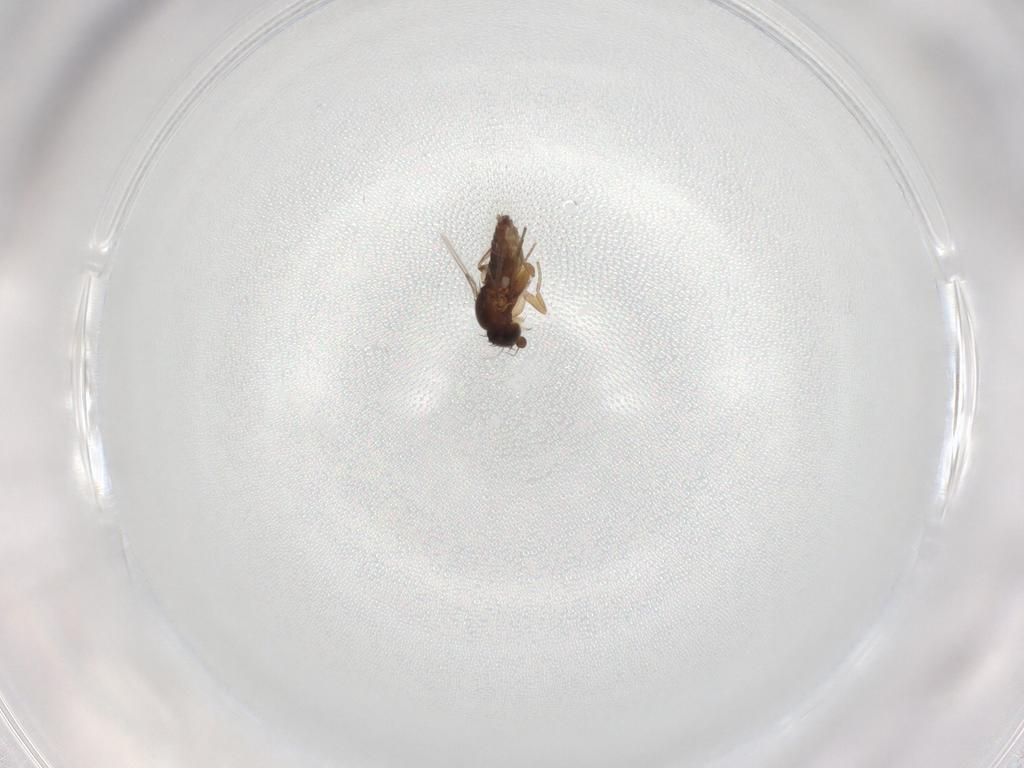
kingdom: Animalia
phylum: Arthropoda
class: Insecta
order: Diptera
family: Phoridae
